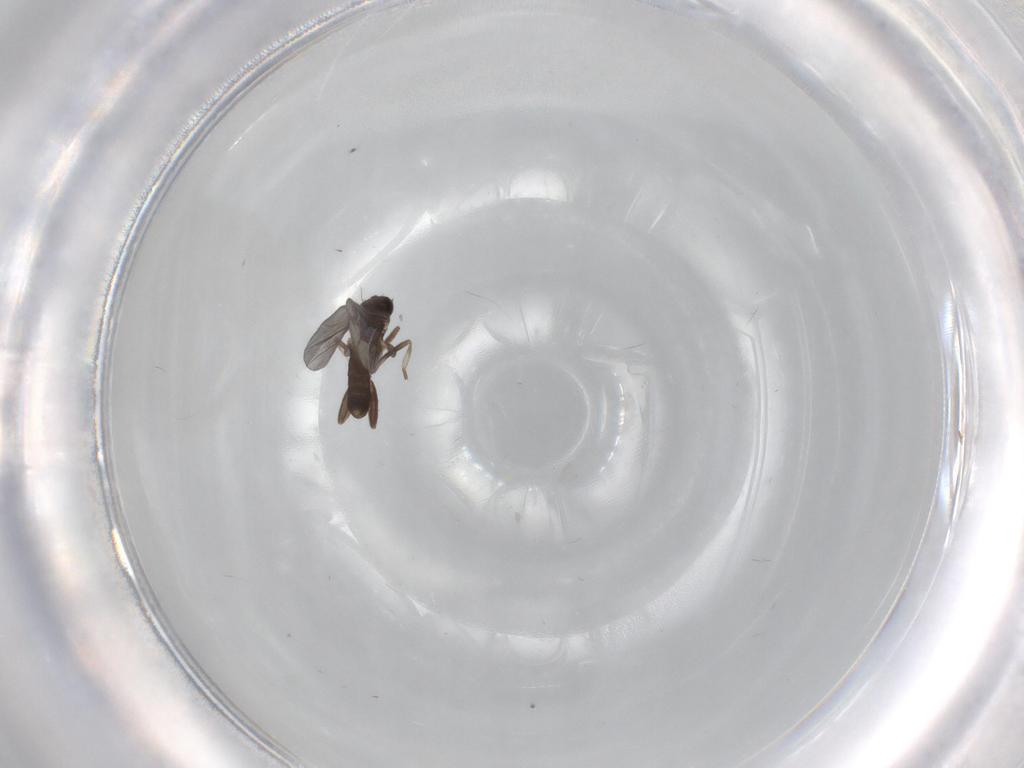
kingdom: Animalia
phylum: Arthropoda
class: Insecta
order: Diptera
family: Phoridae
